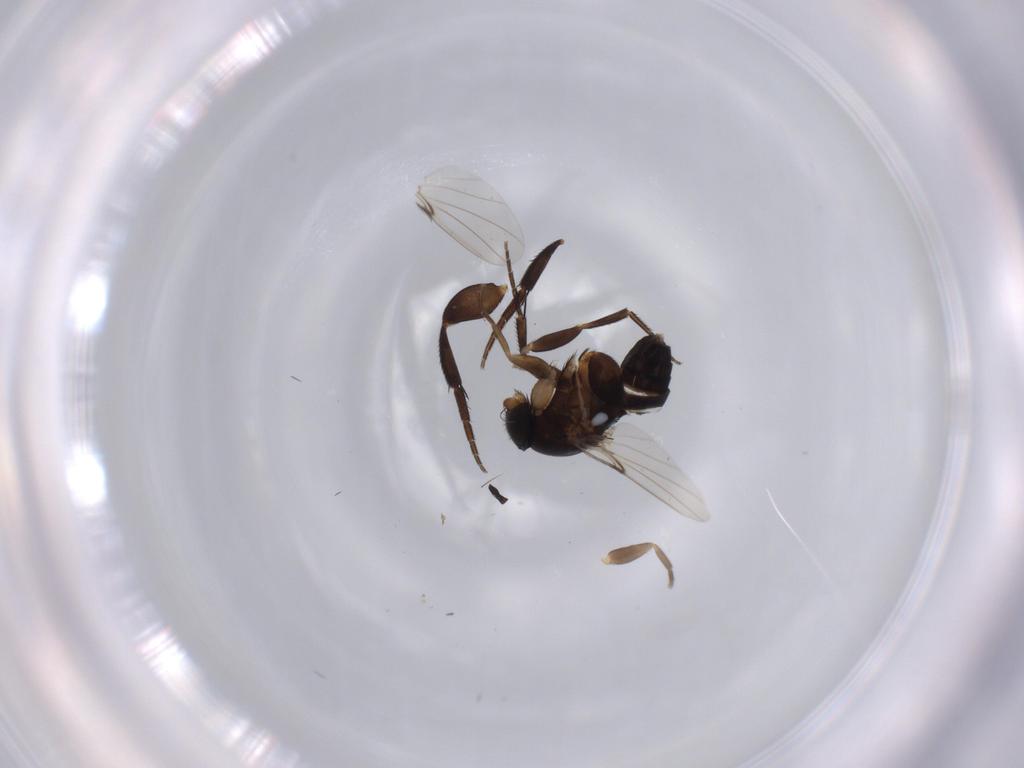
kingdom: Animalia
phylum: Arthropoda
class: Insecta
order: Diptera
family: Phoridae
